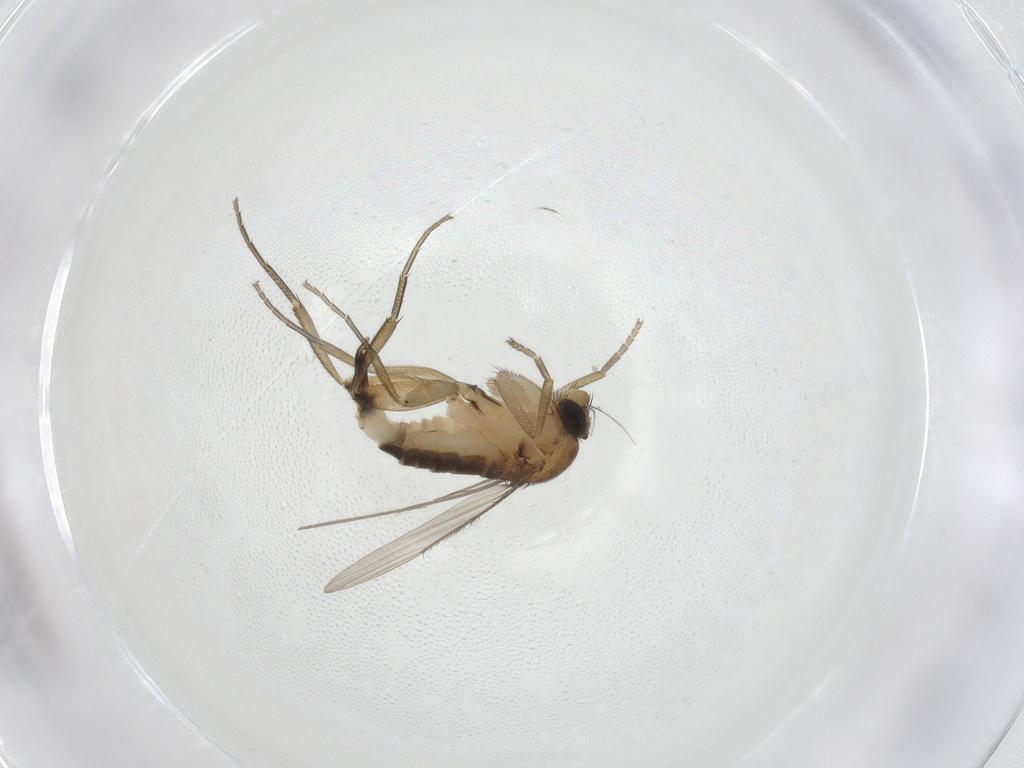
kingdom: Animalia
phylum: Arthropoda
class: Insecta
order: Diptera
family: Phoridae
